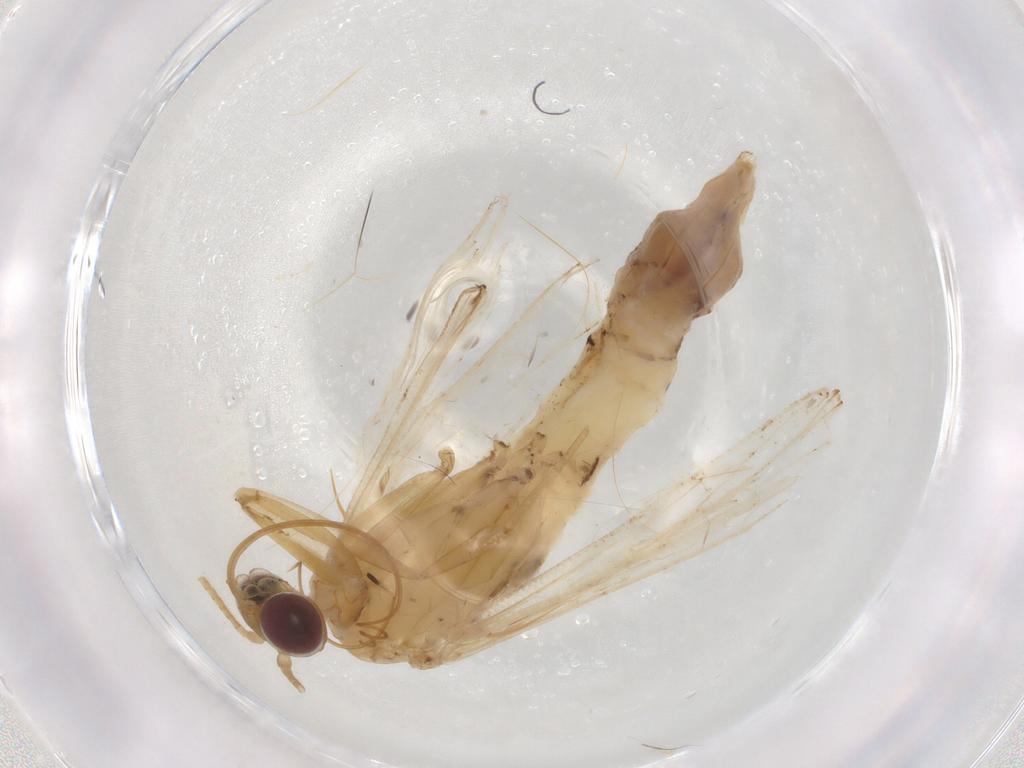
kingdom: Animalia
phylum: Arthropoda
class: Insecta
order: Lepidoptera
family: Crambidae
